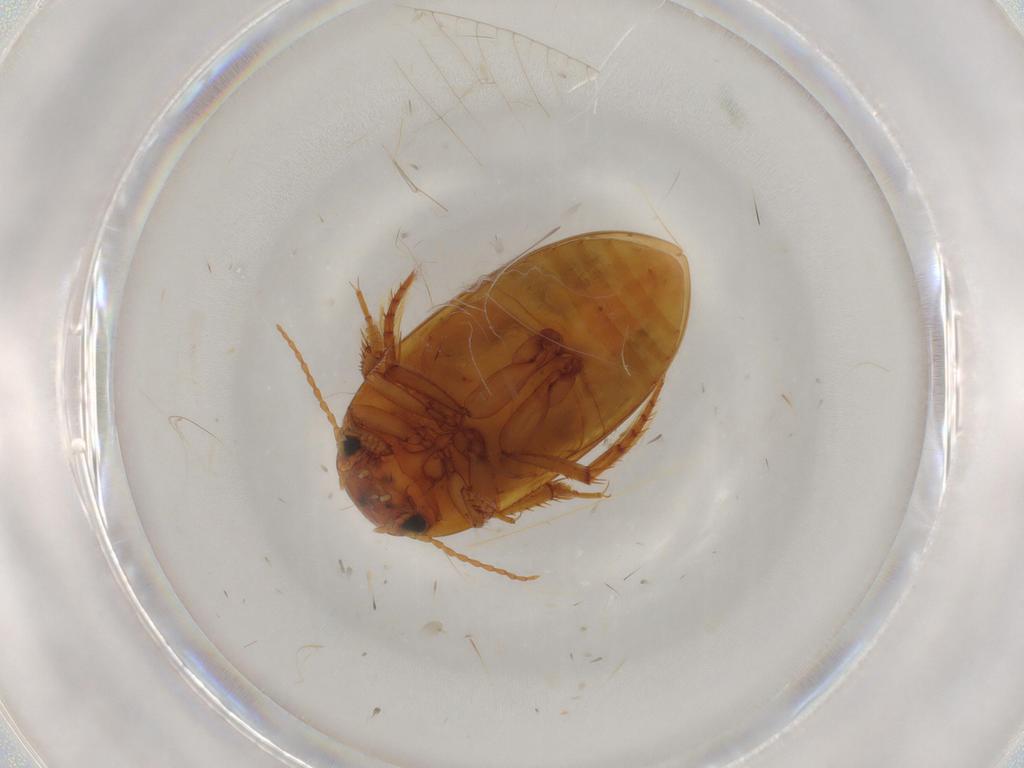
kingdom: Animalia
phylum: Arthropoda
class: Insecta
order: Coleoptera
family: Dytiscidae
